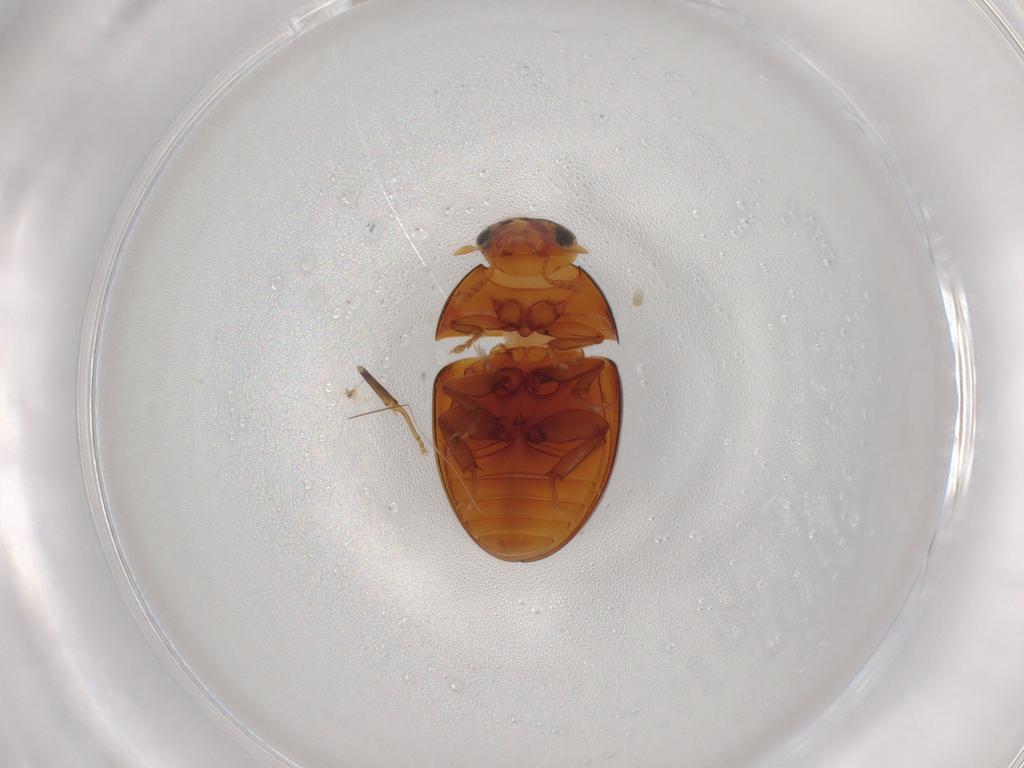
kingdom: Animalia
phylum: Arthropoda
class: Insecta
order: Coleoptera
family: Phalacridae
